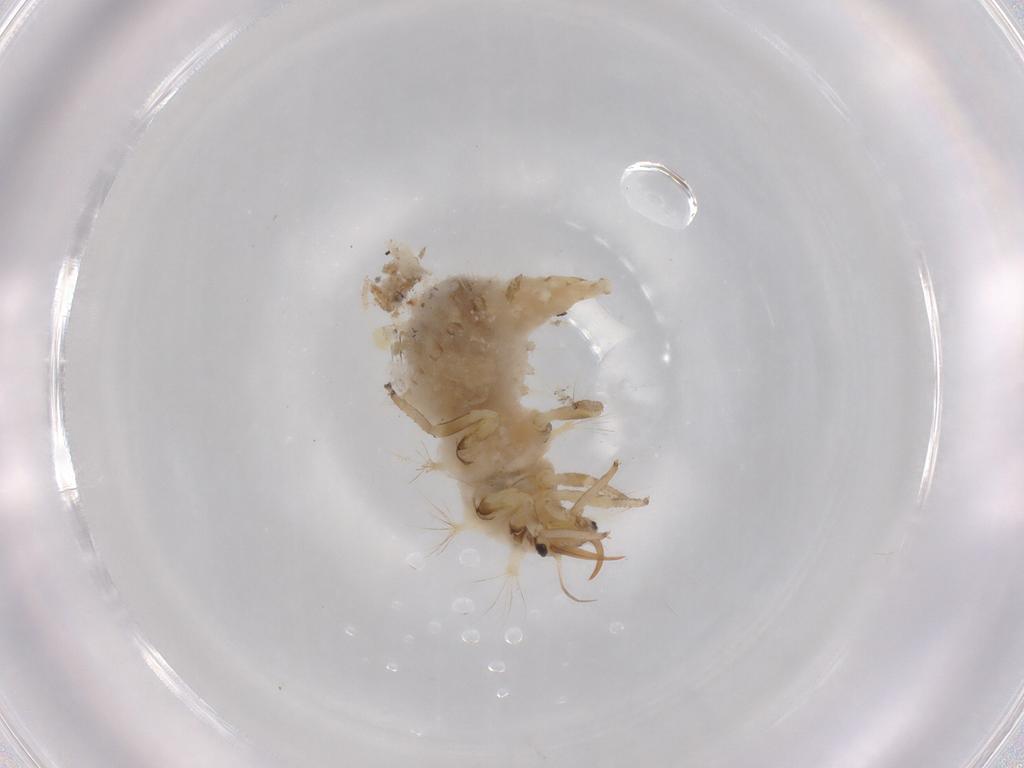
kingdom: Animalia
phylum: Arthropoda
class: Insecta
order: Neuroptera
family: Chrysopidae
